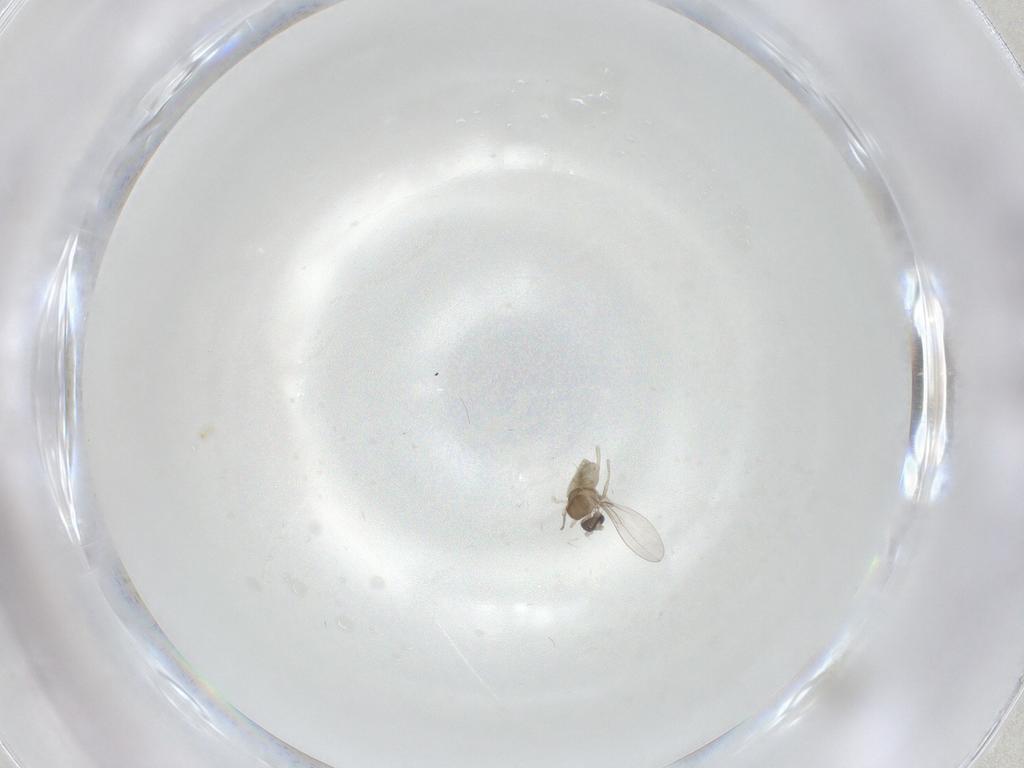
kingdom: Animalia
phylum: Arthropoda
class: Insecta
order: Diptera
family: Cecidomyiidae
